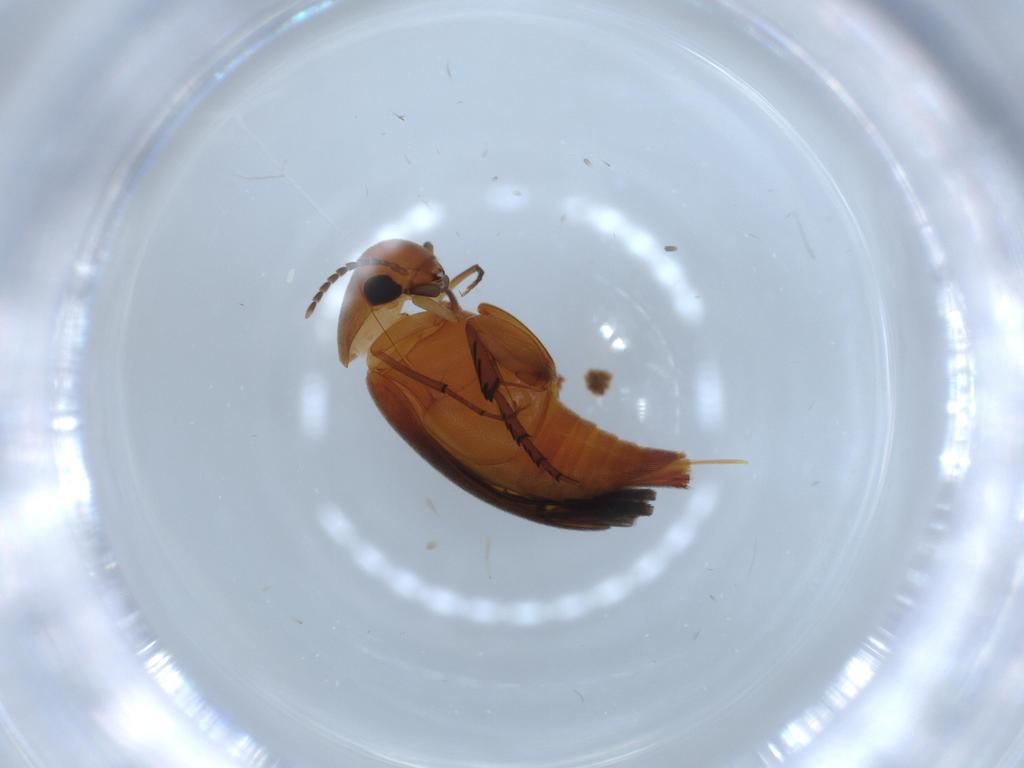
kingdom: Animalia
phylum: Arthropoda
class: Insecta
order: Coleoptera
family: Mordellidae
